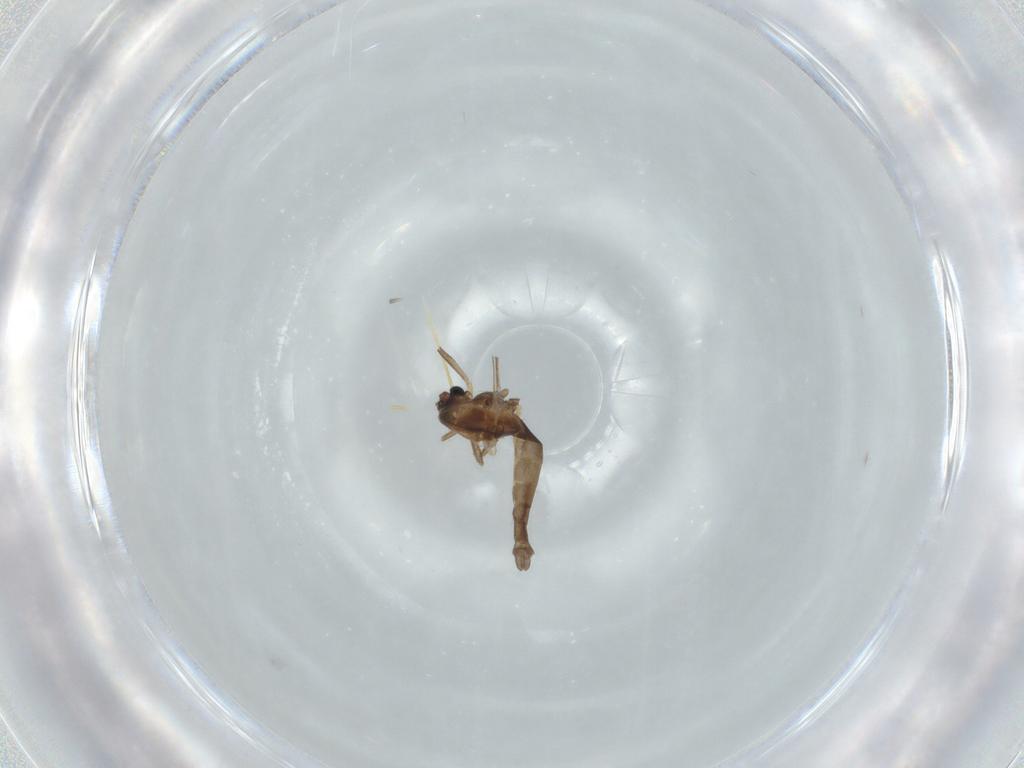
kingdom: Animalia
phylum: Arthropoda
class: Insecta
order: Diptera
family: Chironomidae
